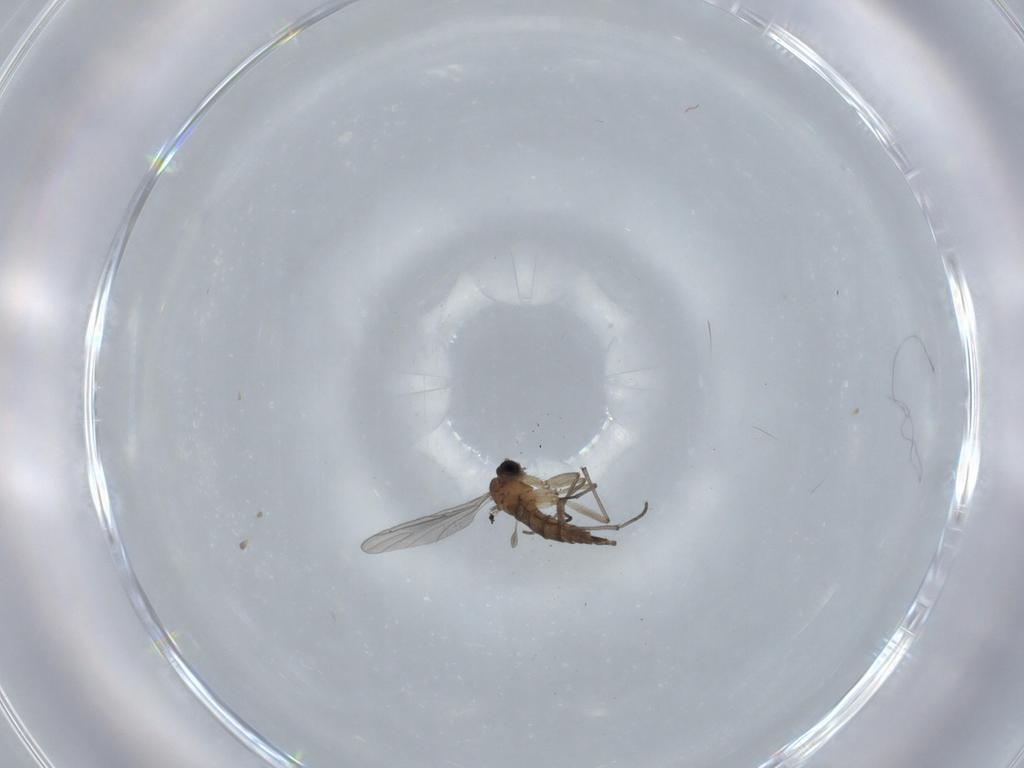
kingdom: Animalia
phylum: Arthropoda
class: Insecta
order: Diptera
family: Sciaridae
